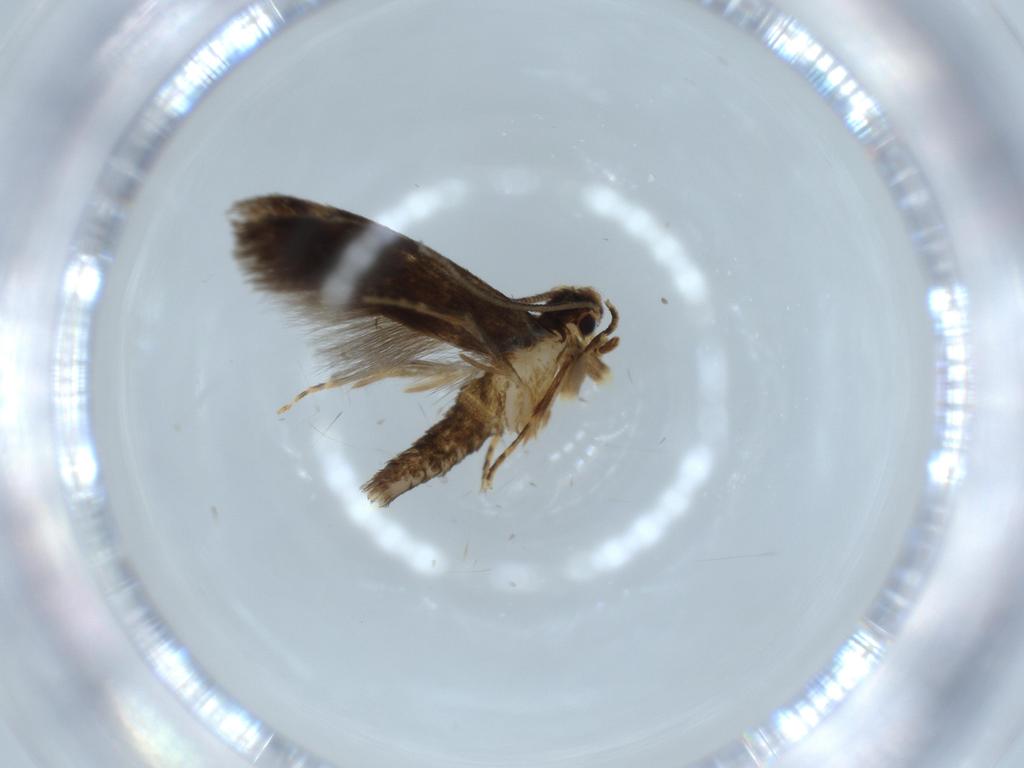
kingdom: Animalia
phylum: Arthropoda
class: Insecta
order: Lepidoptera
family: Tineidae
